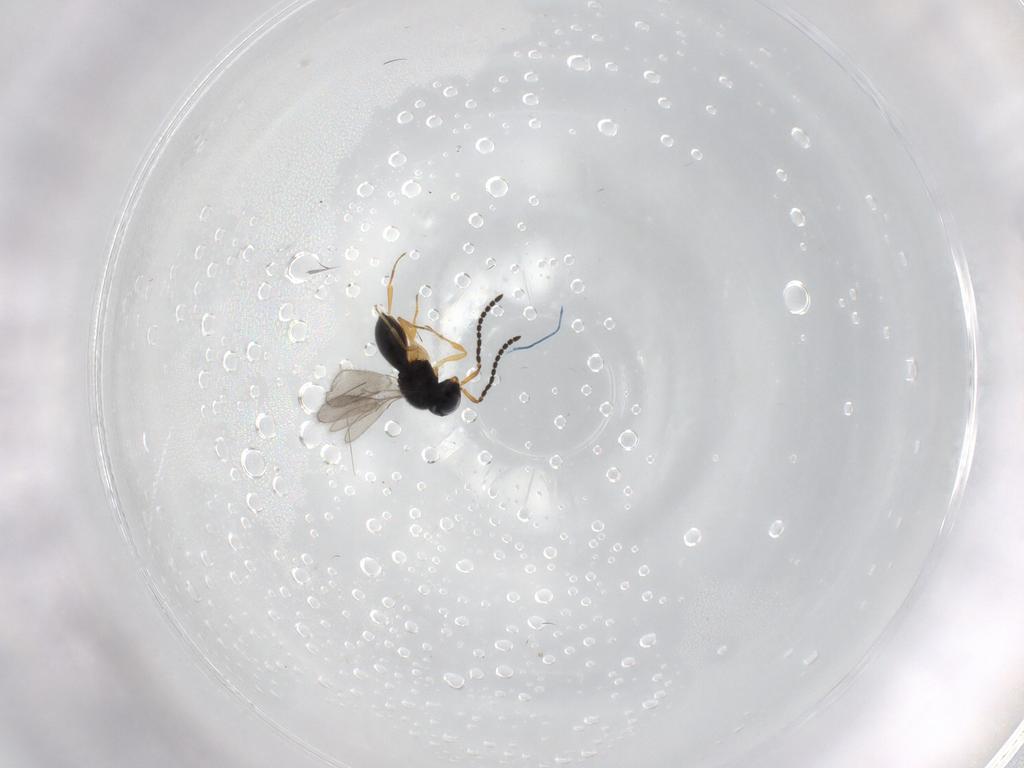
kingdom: Animalia
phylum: Arthropoda
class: Insecta
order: Hymenoptera
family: Scelionidae
